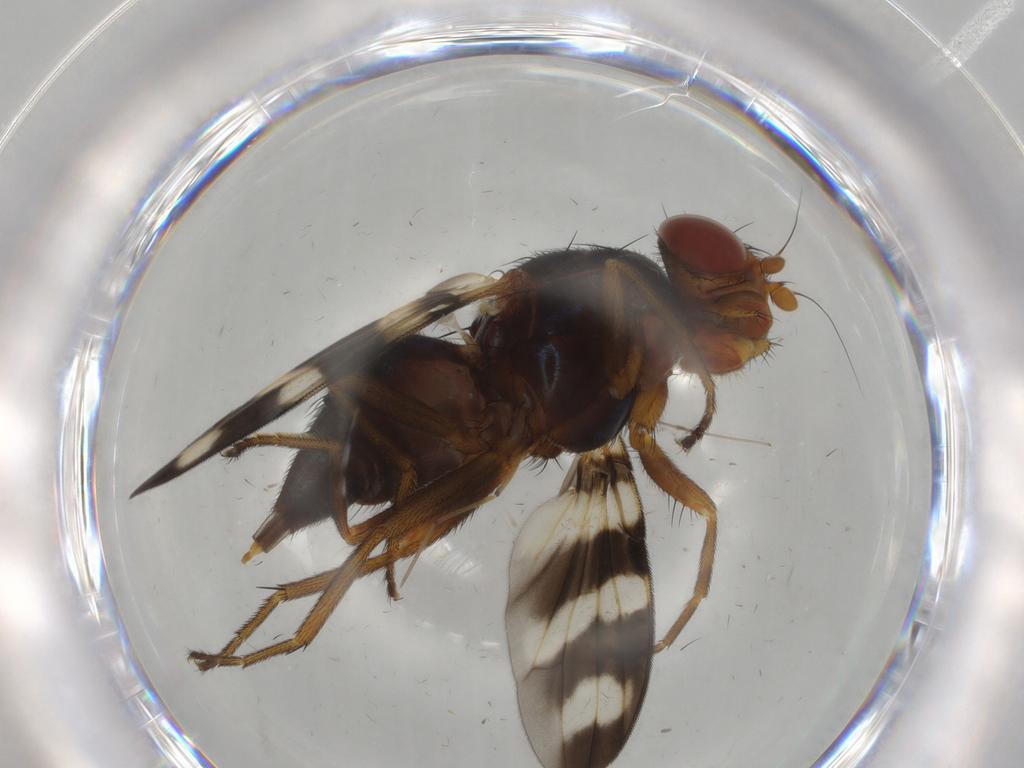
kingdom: Animalia
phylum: Arthropoda
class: Insecta
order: Diptera
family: Ulidiidae
